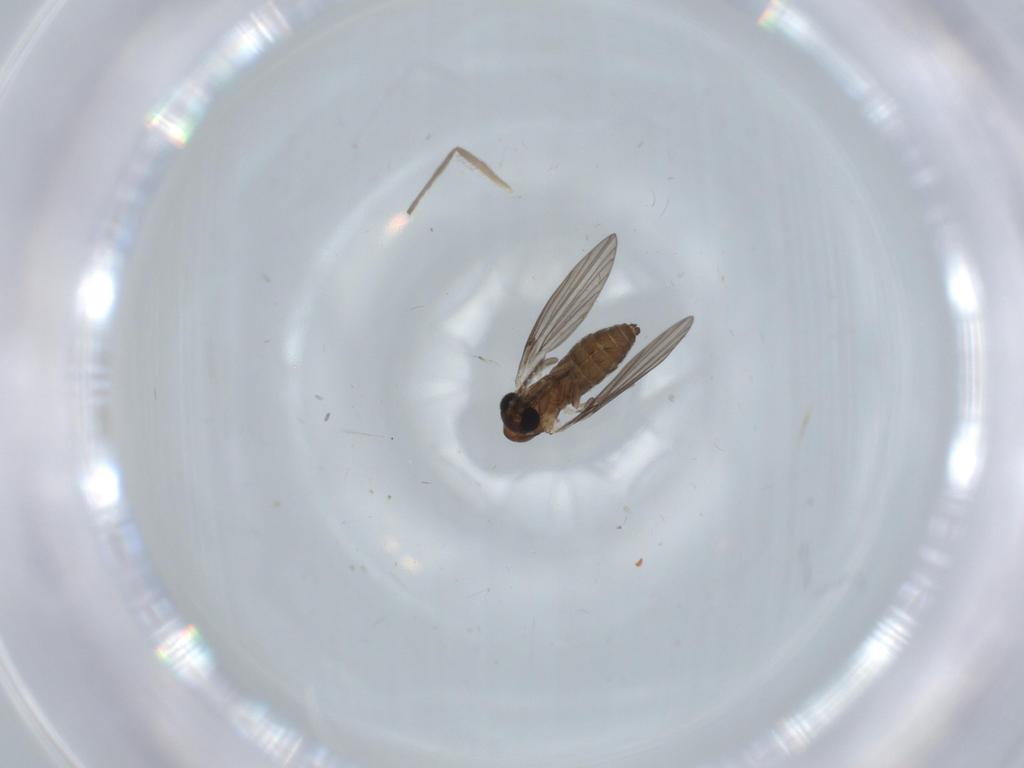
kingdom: Animalia
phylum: Arthropoda
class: Insecta
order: Diptera
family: Psychodidae
